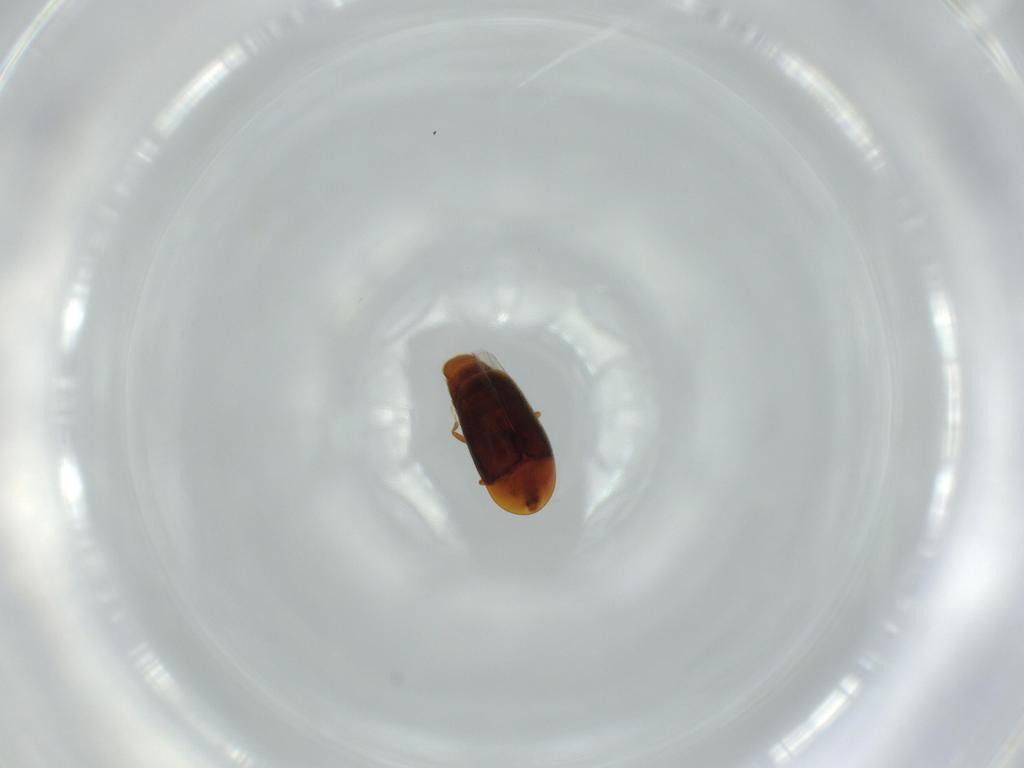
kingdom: Animalia
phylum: Arthropoda
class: Insecta
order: Coleoptera
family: Corylophidae
